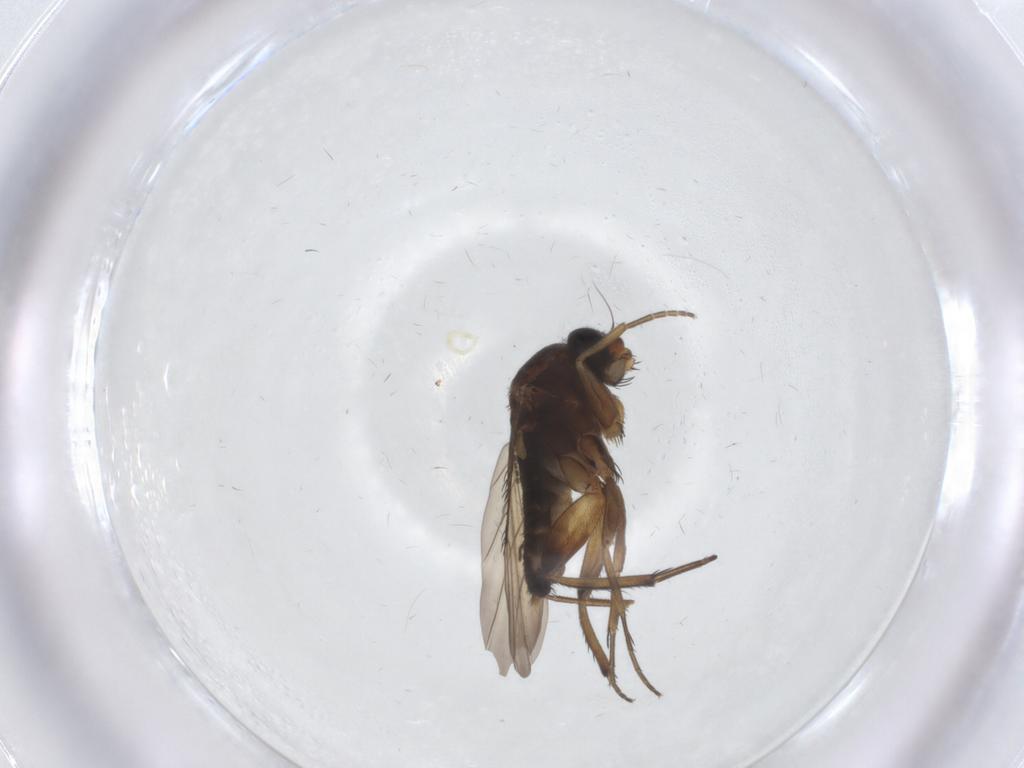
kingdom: Animalia
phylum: Arthropoda
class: Insecta
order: Diptera
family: Phoridae
